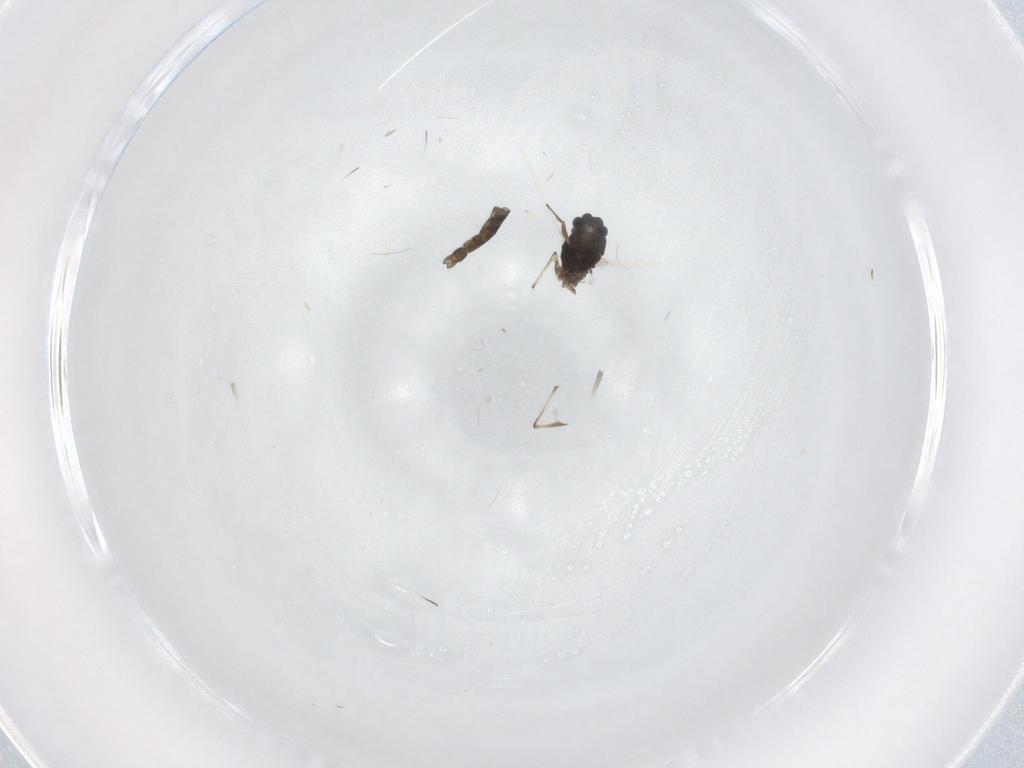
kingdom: Animalia
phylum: Arthropoda
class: Insecta
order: Diptera
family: Chironomidae
